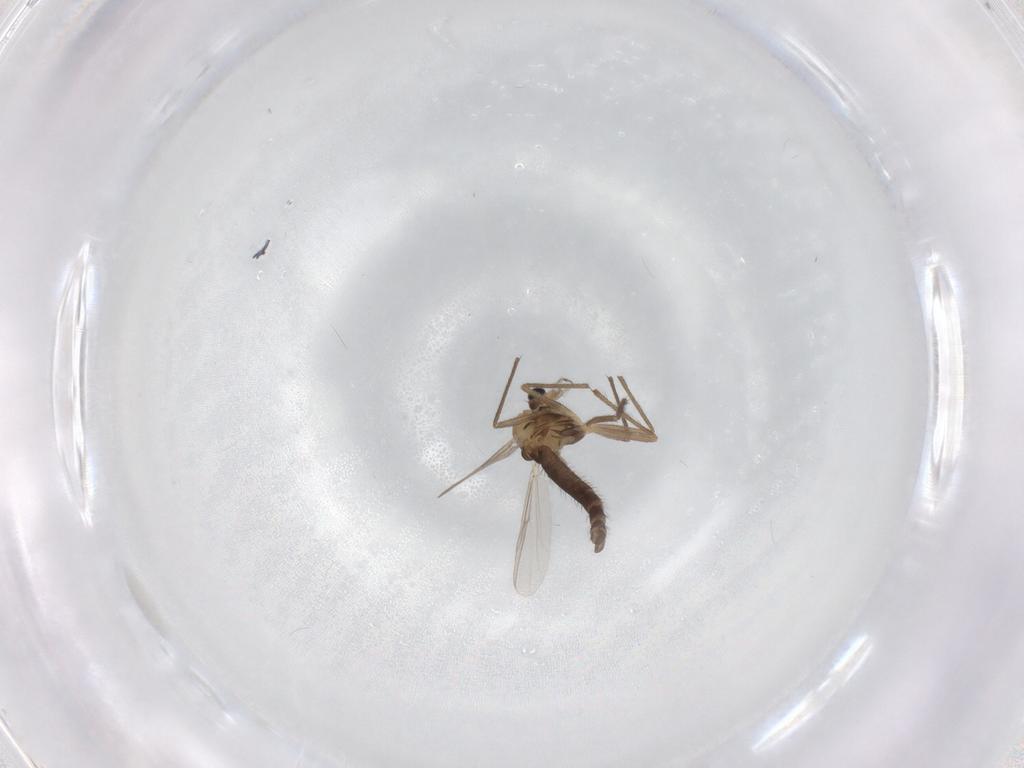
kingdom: Animalia
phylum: Arthropoda
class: Insecta
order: Diptera
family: Chironomidae
